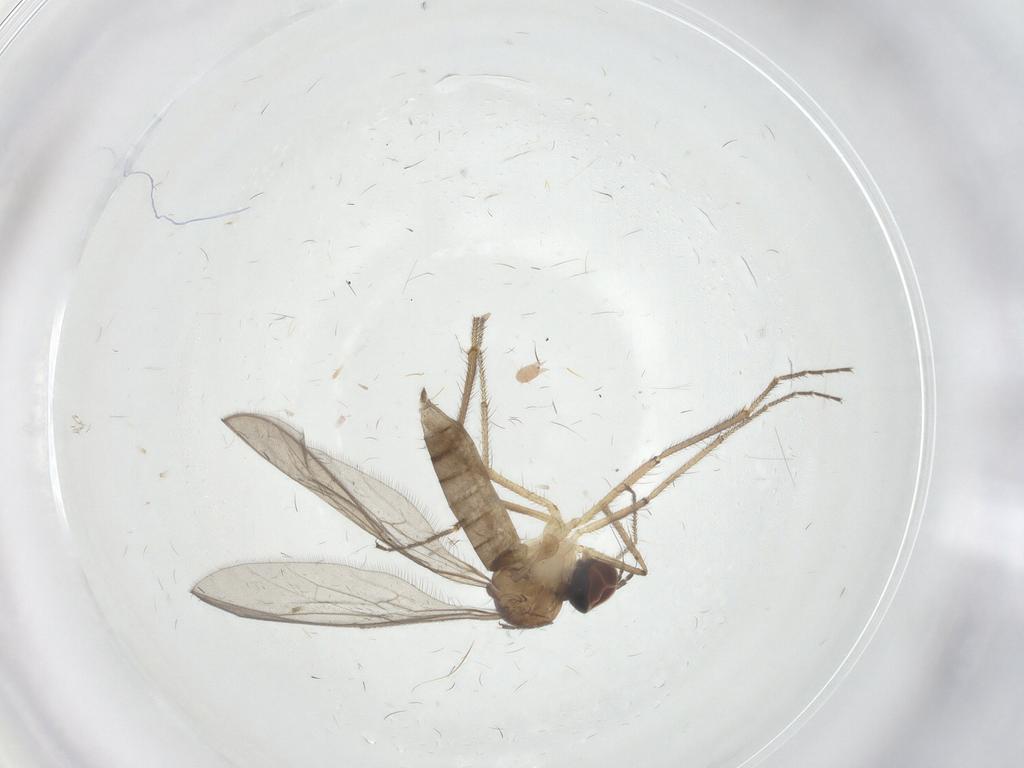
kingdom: Animalia
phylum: Arthropoda
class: Insecta
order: Diptera
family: Hybotidae
